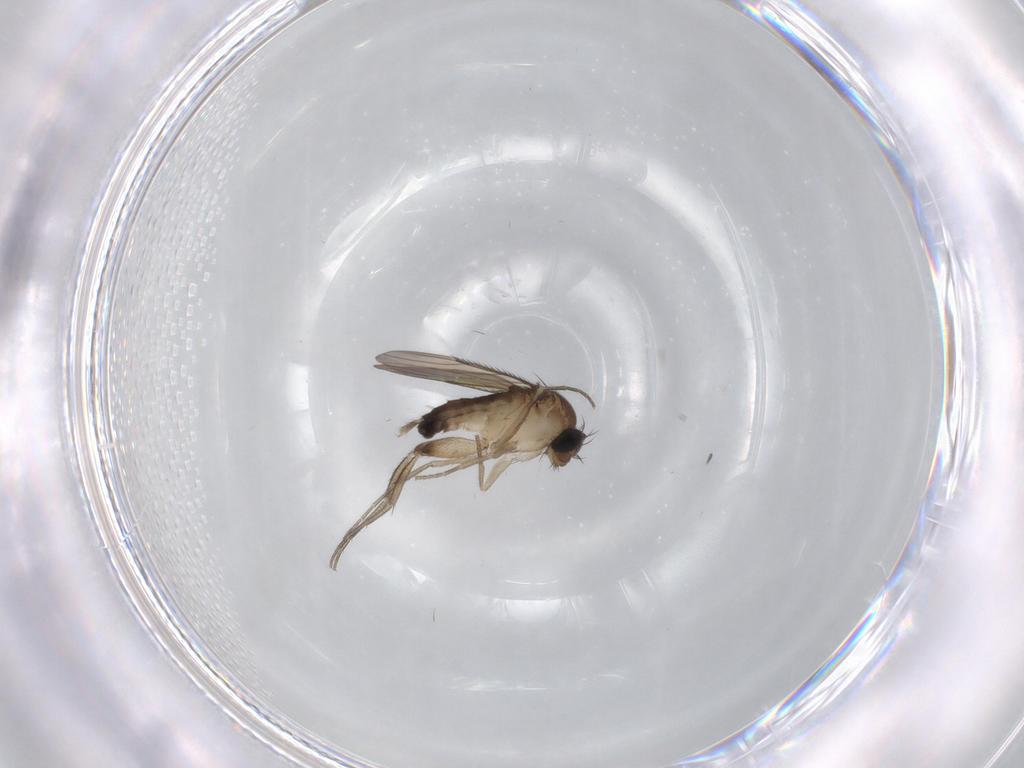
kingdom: Animalia
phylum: Arthropoda
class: Insecta
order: Diptera
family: Phoridae
